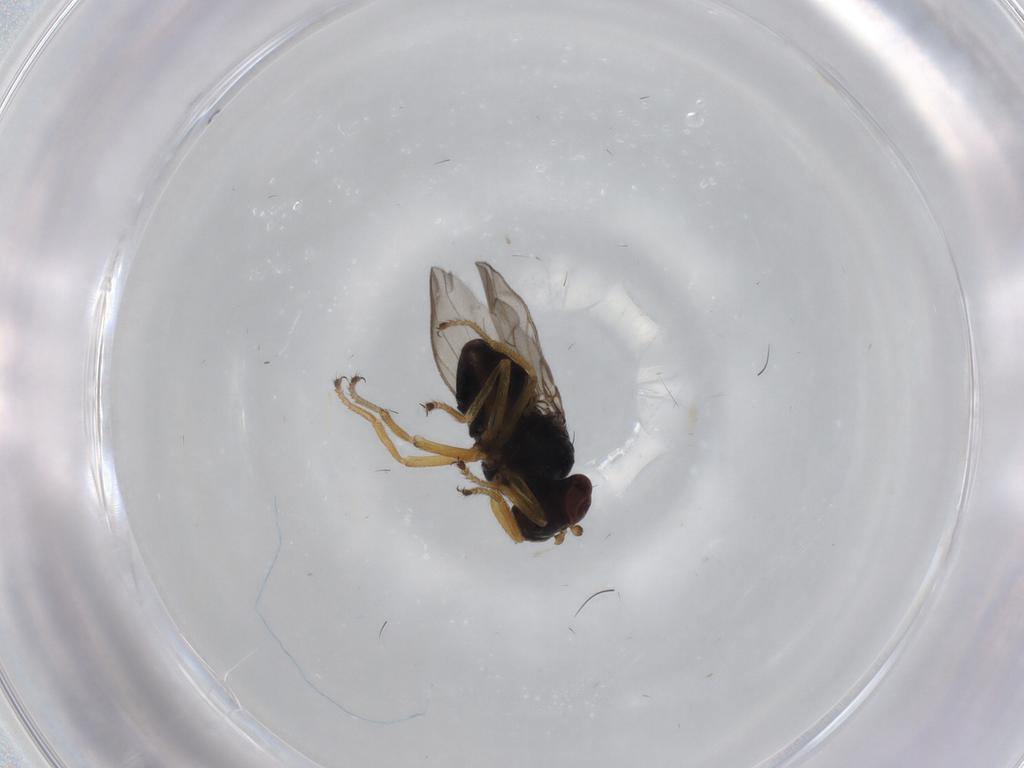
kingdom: Animalia
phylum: Arthropoda
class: Insecta
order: Diptera
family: Ephydridae
